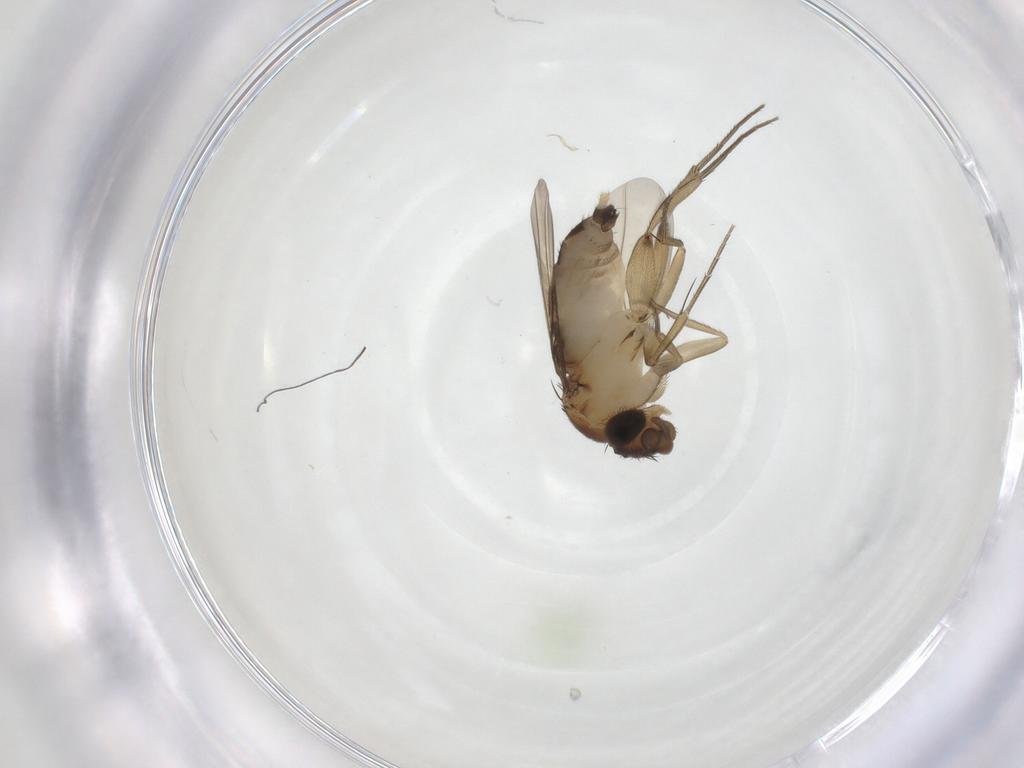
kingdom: Animalia
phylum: Arthropoda
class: Insecta
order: Diptera
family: Phoridae
